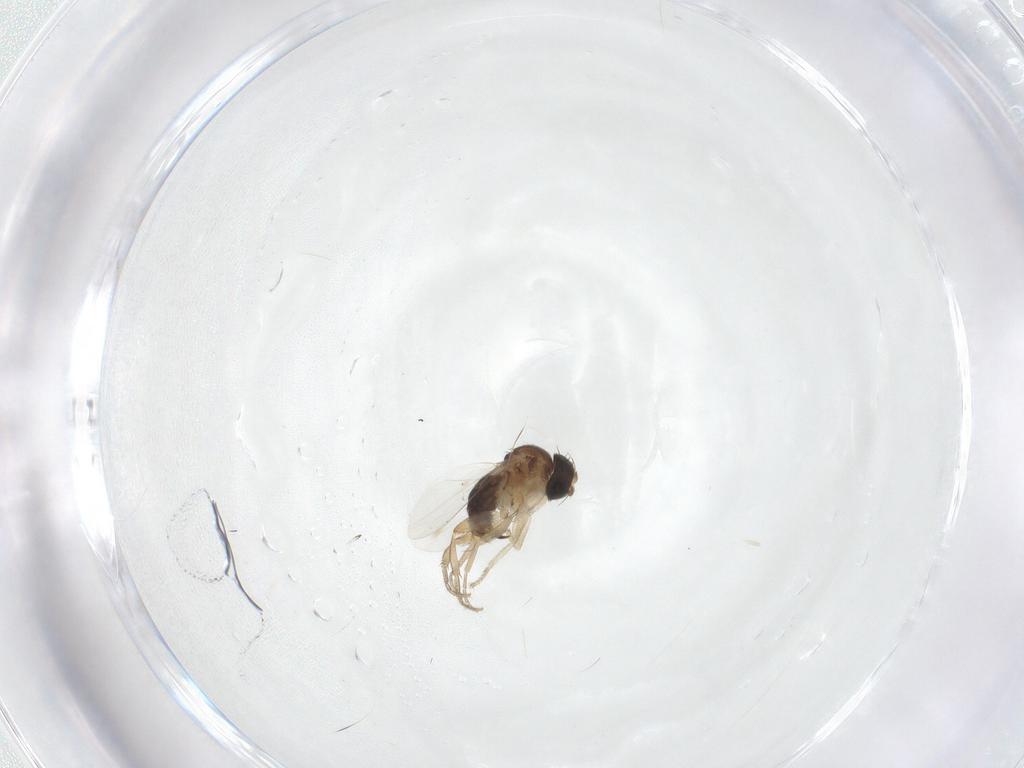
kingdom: Animalia
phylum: Arthropoda
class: Insecta
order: Diptera
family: Phoridae
